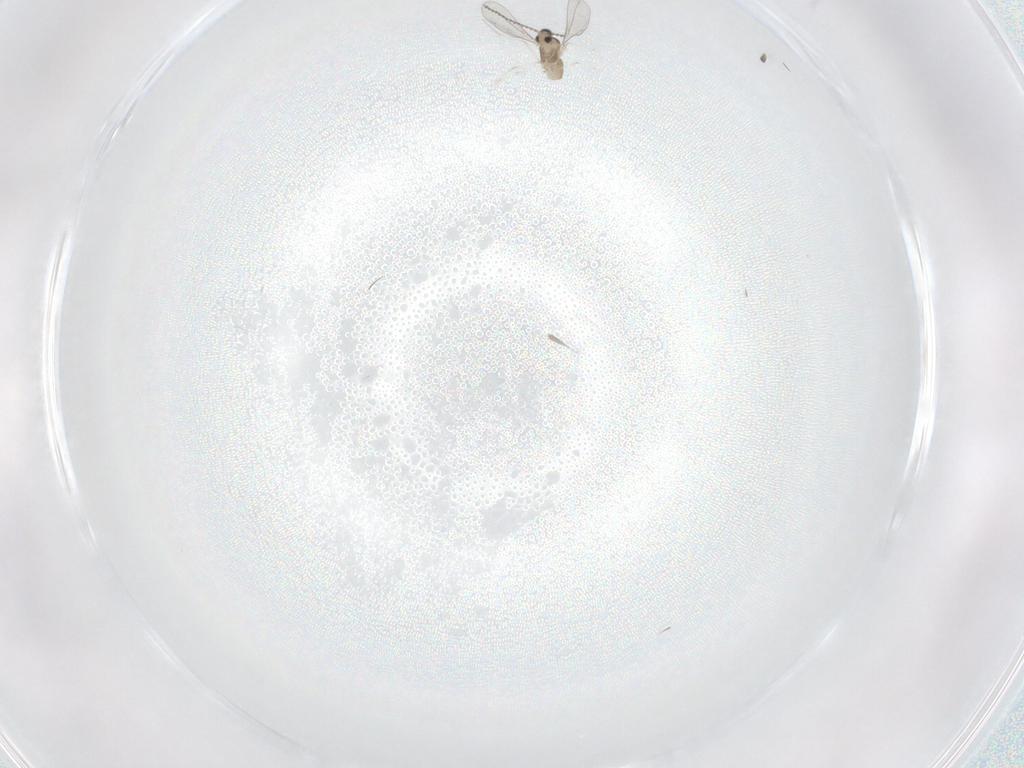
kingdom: Animalia
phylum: Arthropoda
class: Insecta
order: Diptera
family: Cecidomyiidae
